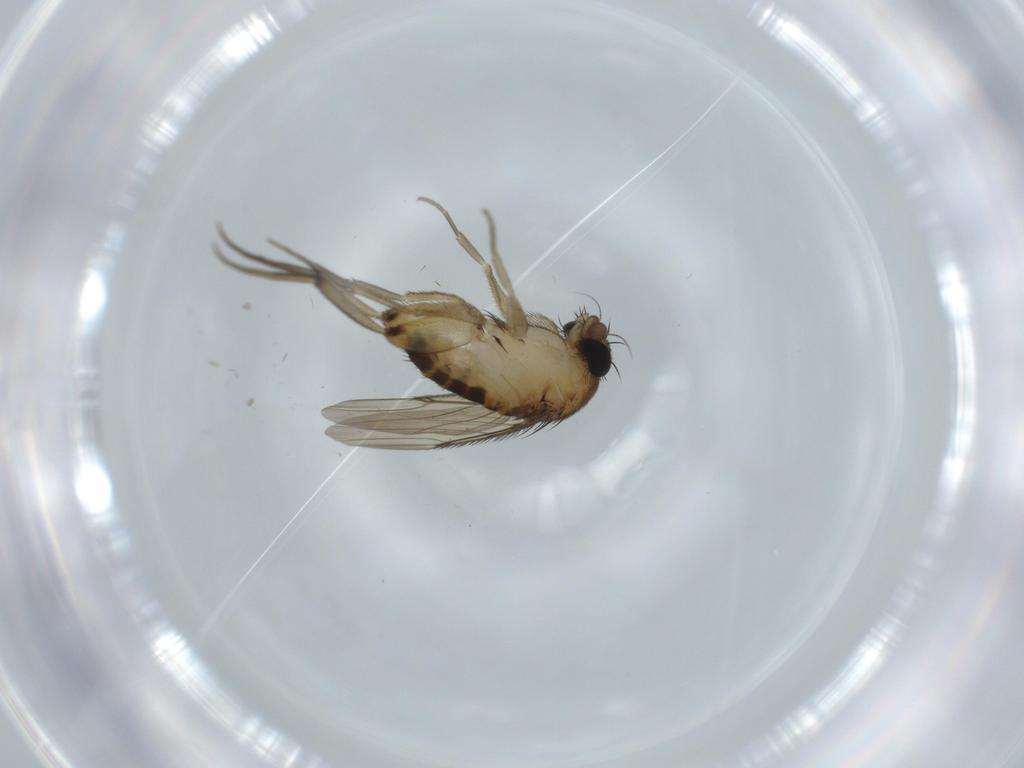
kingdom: Animalia
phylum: Arthropoda
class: Insecta
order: Diptera
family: Phoridae
